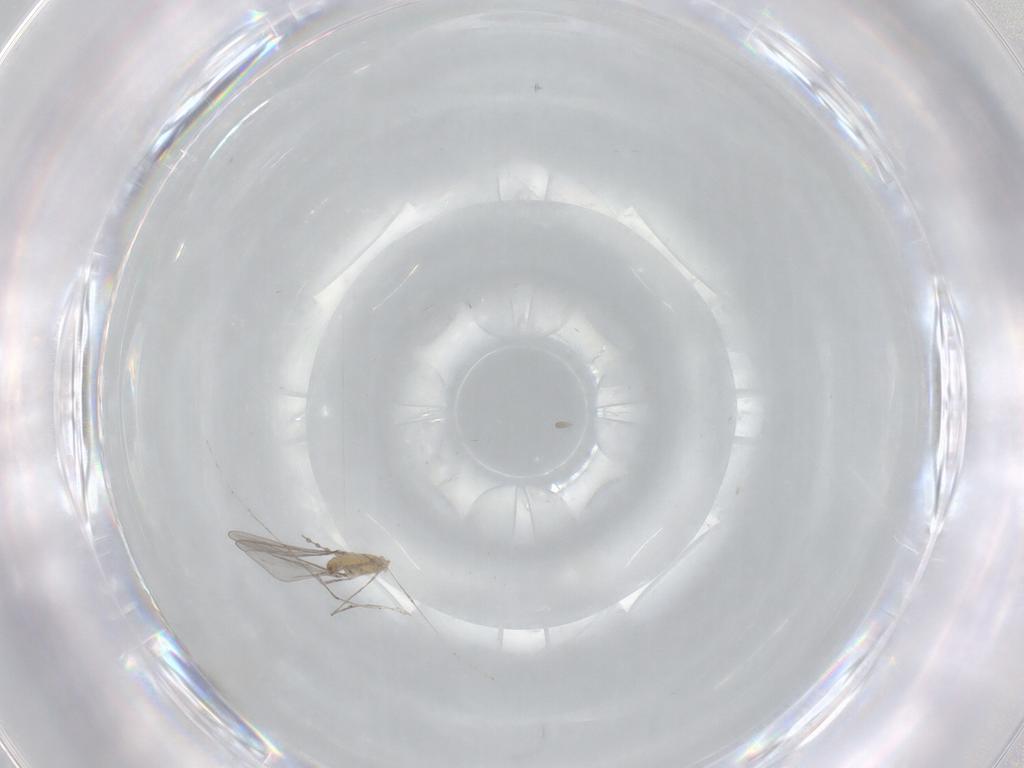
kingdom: Animalia
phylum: Arthropoda
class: Insecta
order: Diptera
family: Cecidomyiidae
